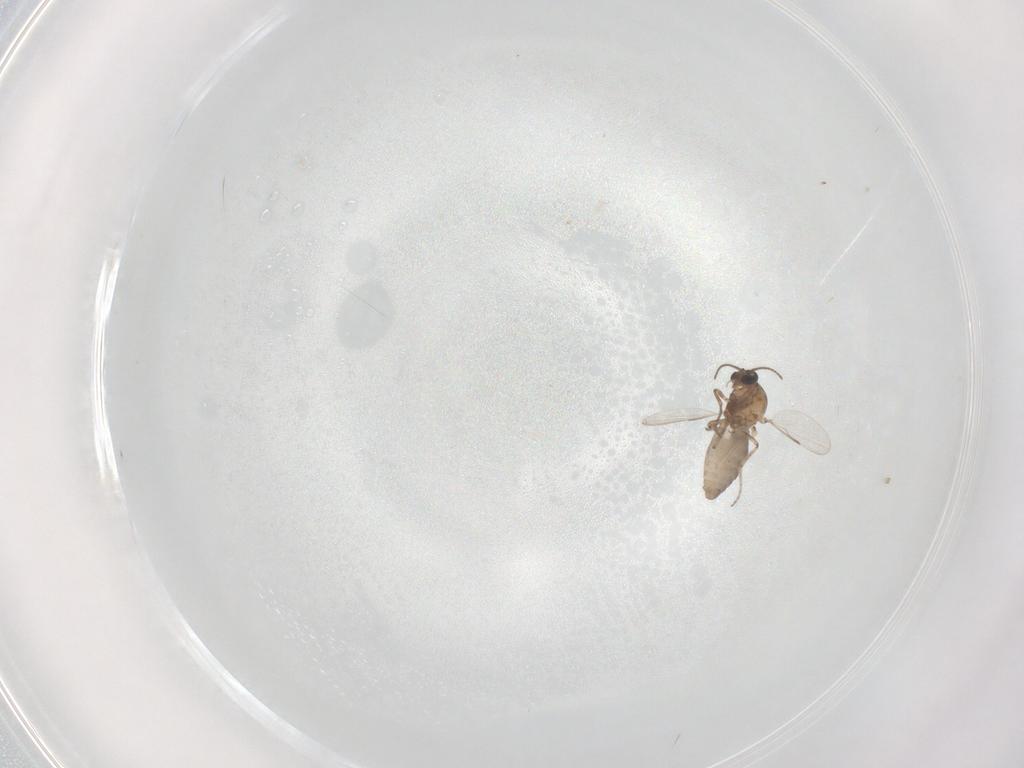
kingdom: Animalia
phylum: Arthropoda
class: Insecta
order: Diptera
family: Ceratopogonidae
